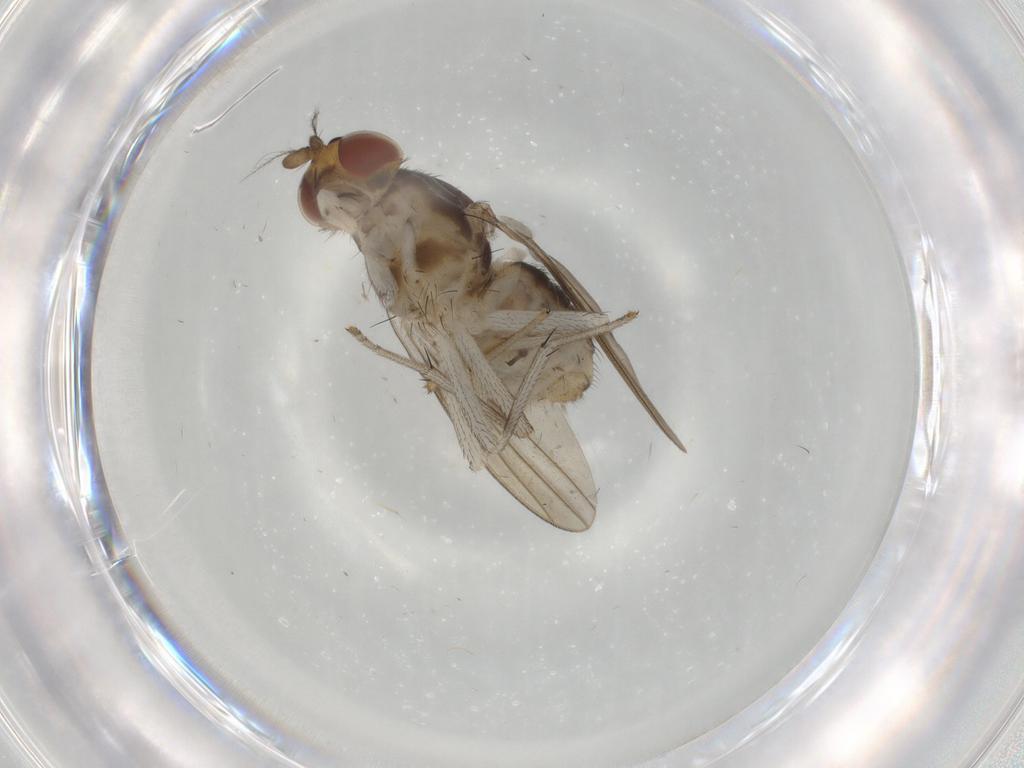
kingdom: Animalia
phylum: Arthropoda
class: Insecta
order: Diptera
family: Lauxaniidae
